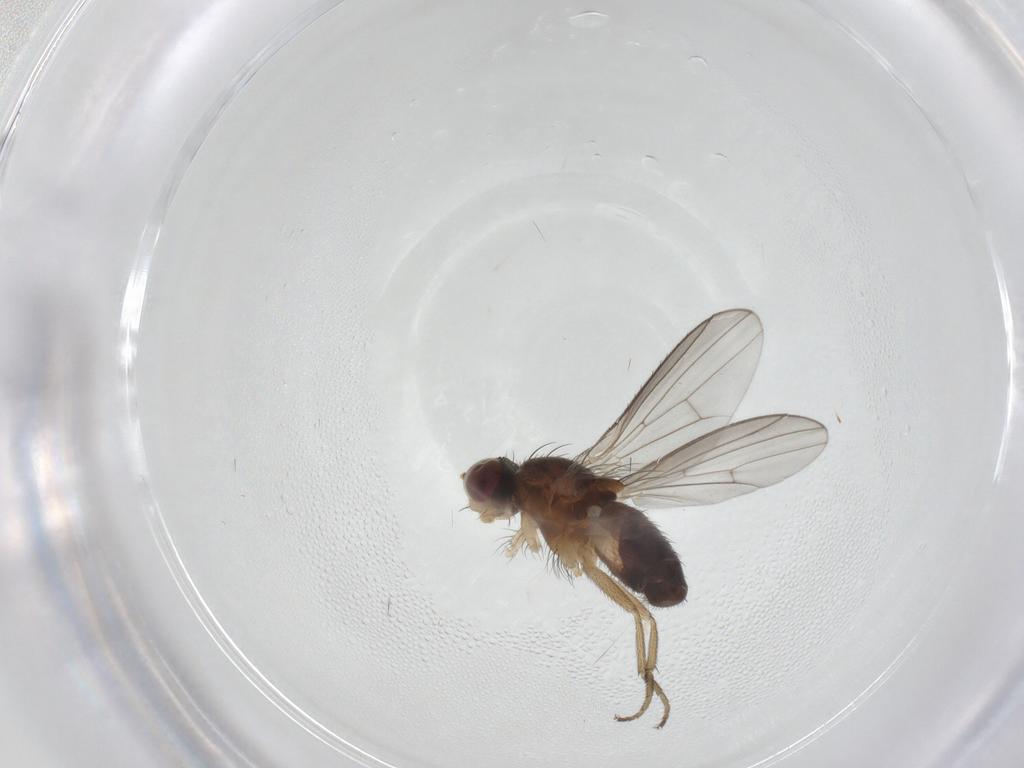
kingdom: Animalia
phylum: Arthropoda
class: Insecta
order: Diptera
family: Heleomyzidae
